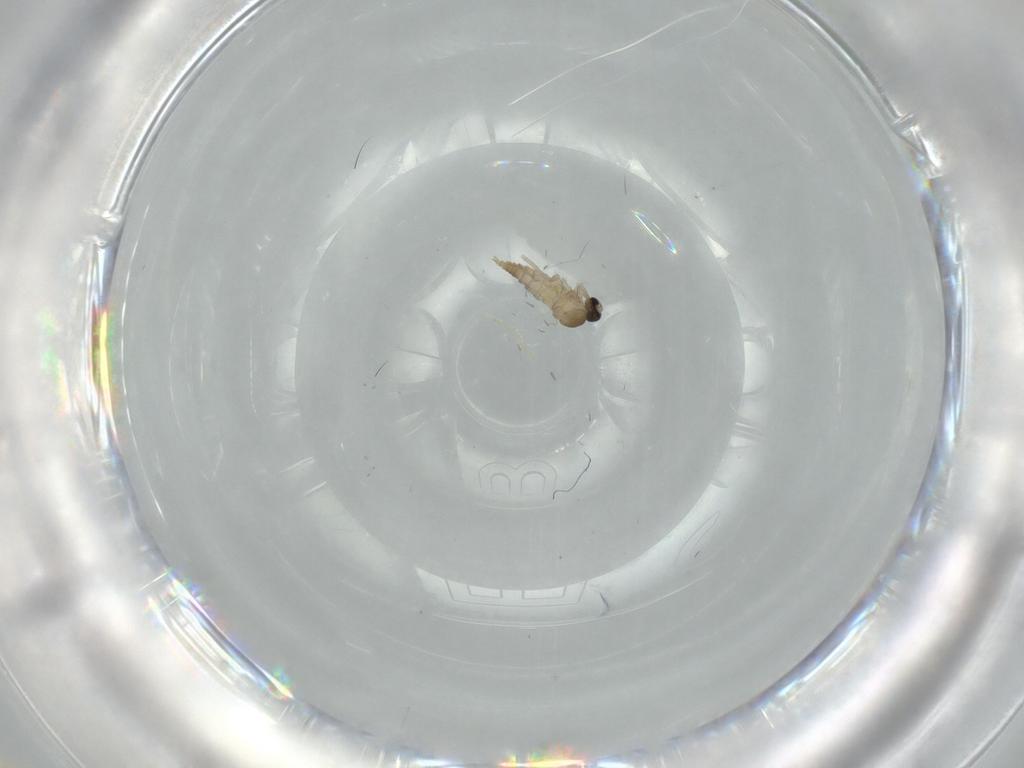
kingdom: Animalia
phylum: Arthropoda
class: Insecta
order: Diptera
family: Cecidomyiidae
